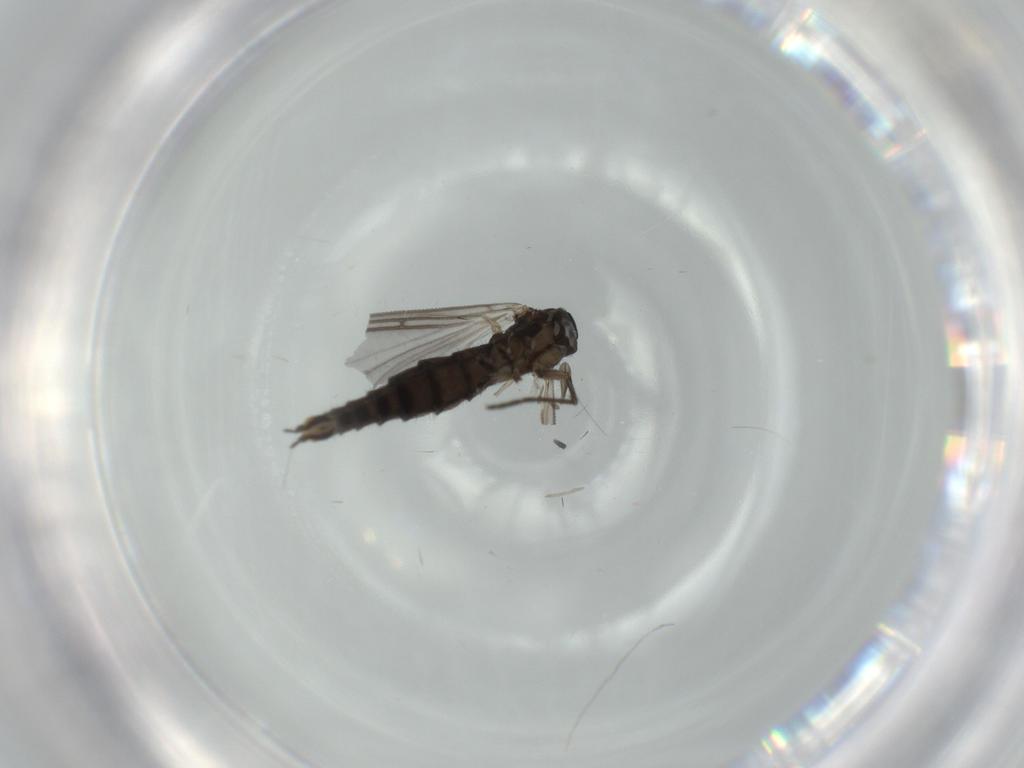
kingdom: Animalia
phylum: Arthropoda
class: Insecta
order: Diptera
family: Sciaridae
